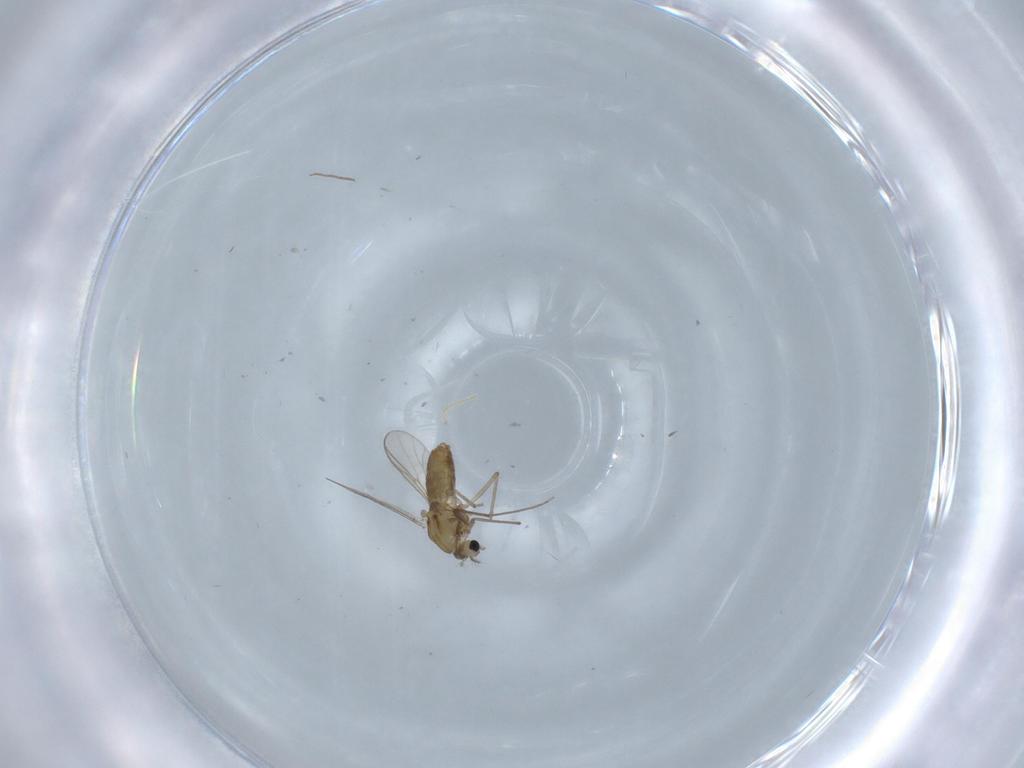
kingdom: Animalia
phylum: Arthropoda
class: Insecta
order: Diptera
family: Chironomidae
